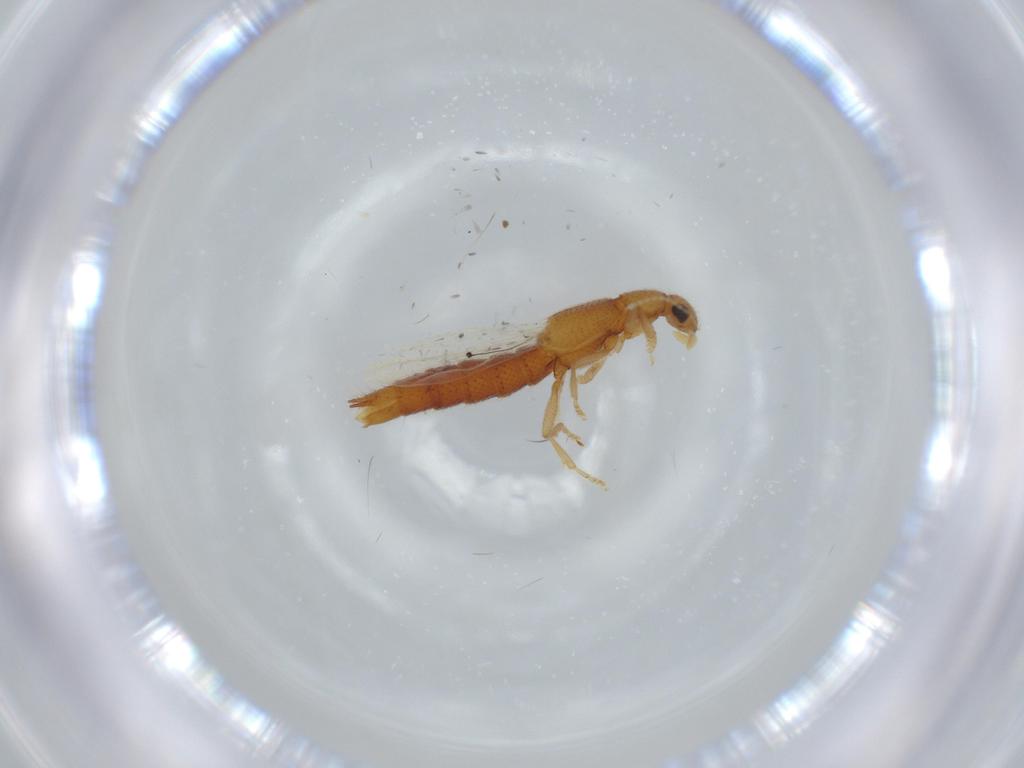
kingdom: Animalia
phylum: Arthropoda
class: Insecta
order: Coleoptera
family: Staphylinidae
